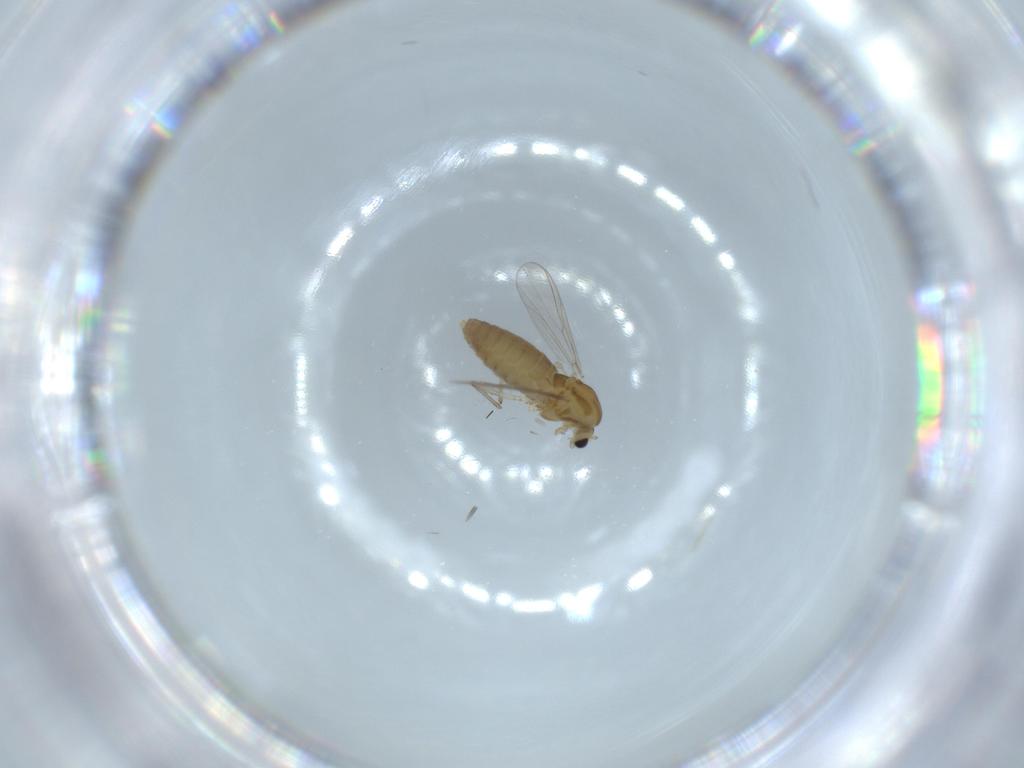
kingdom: Animalia
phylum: Arthropoda
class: Insecta
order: Diptera
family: Chironomidae
